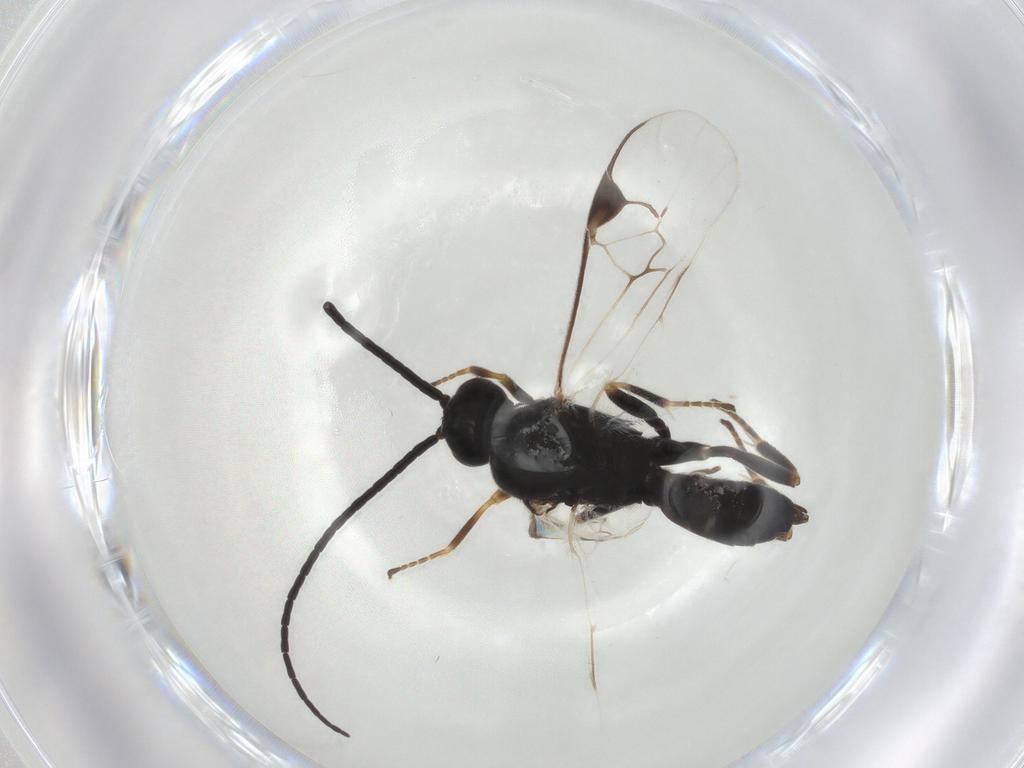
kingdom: Animalia
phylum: Arthropoda
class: Insecta
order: Hymenoptera
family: Braconidae
